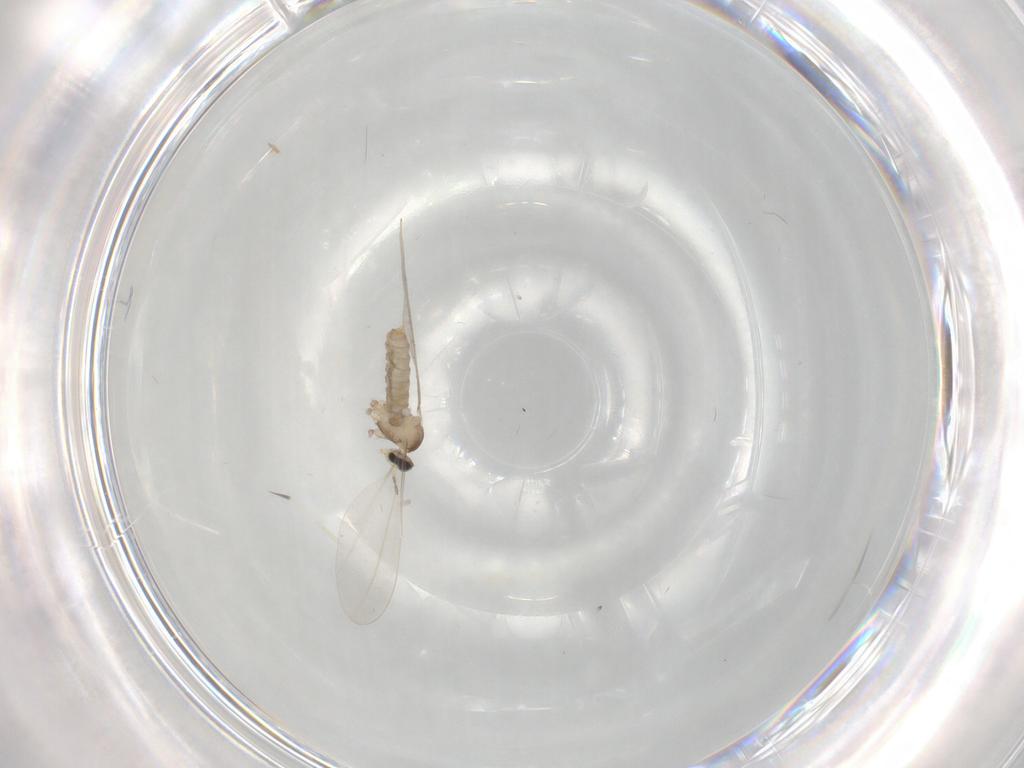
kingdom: Animalia
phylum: Arthropoda
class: Insecta
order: Diptera
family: Cecidomyiidae
